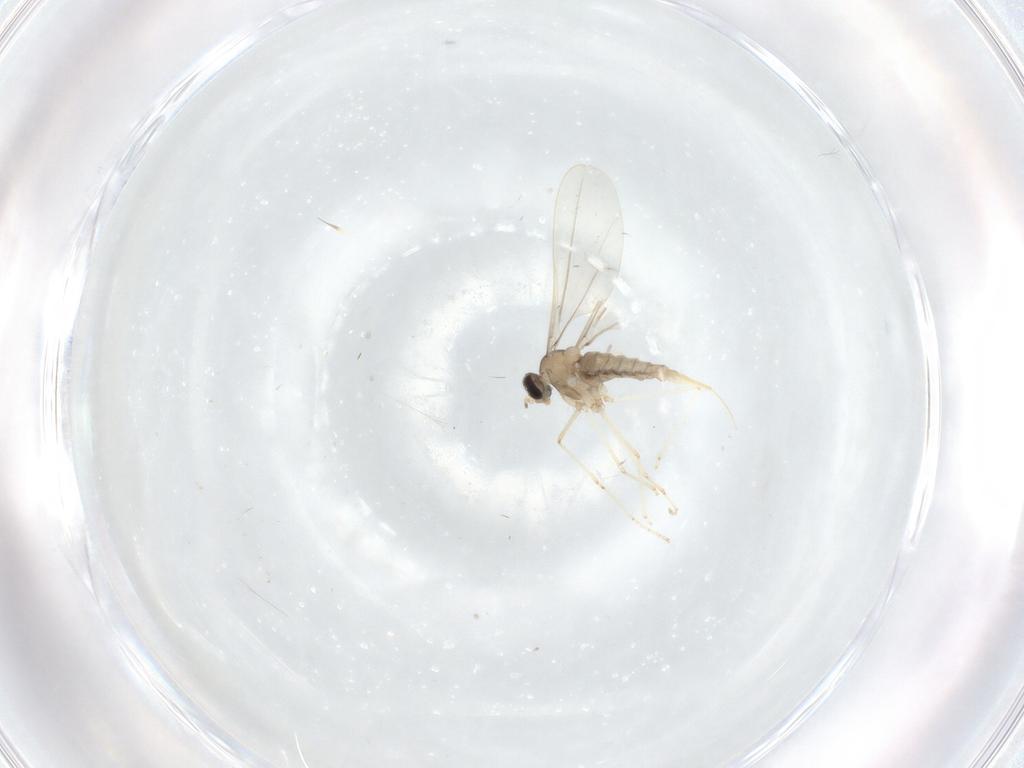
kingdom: Animalia
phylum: Arthropoda
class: Insecta
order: Diptera
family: Cecidomyiidae
